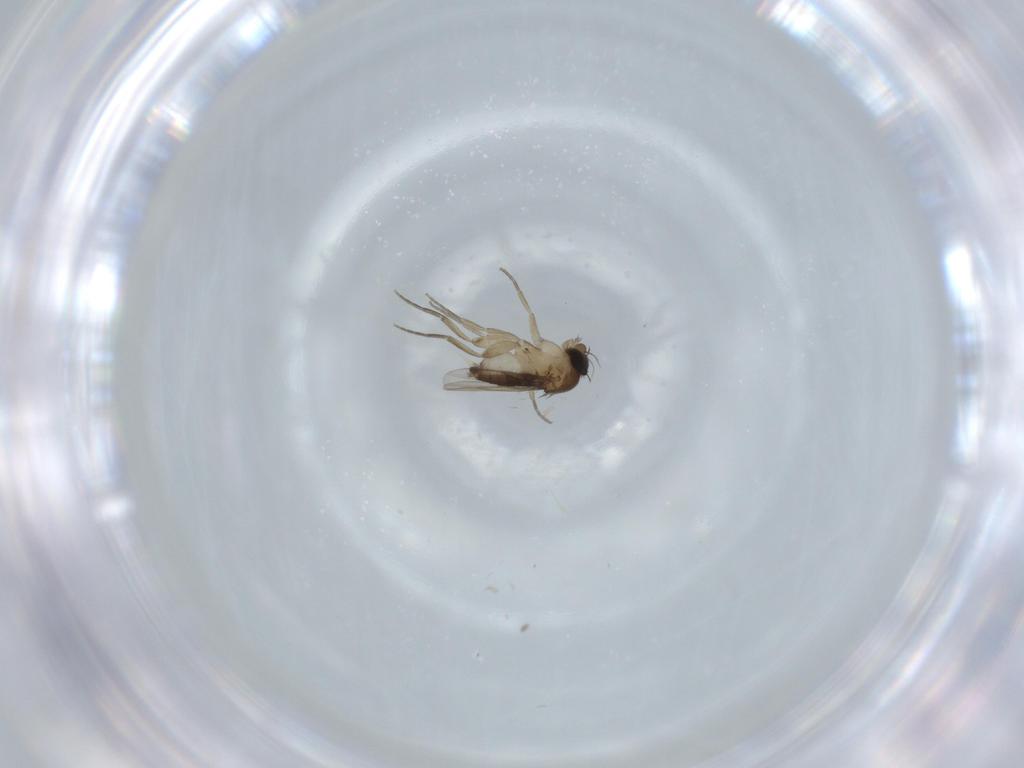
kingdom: Animalia
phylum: Arthropoda
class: Insecta
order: Diptera
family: Phoridae
